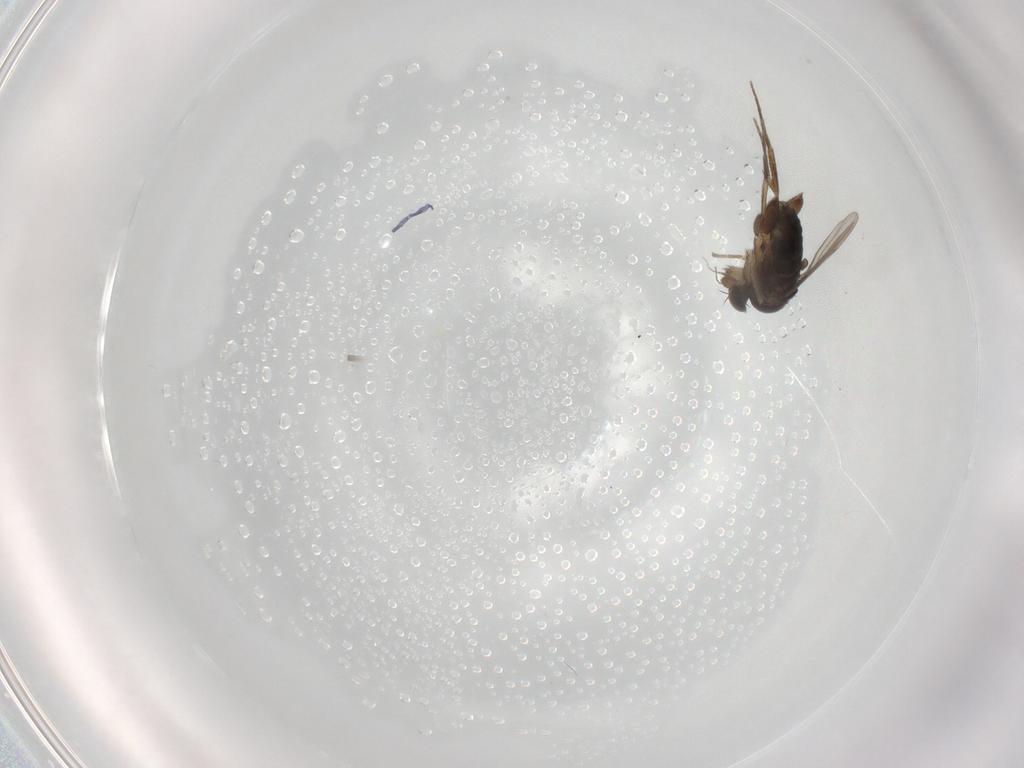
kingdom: Animalia
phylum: Arthropoda
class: Insecta
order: Diptera
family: Phoridae
